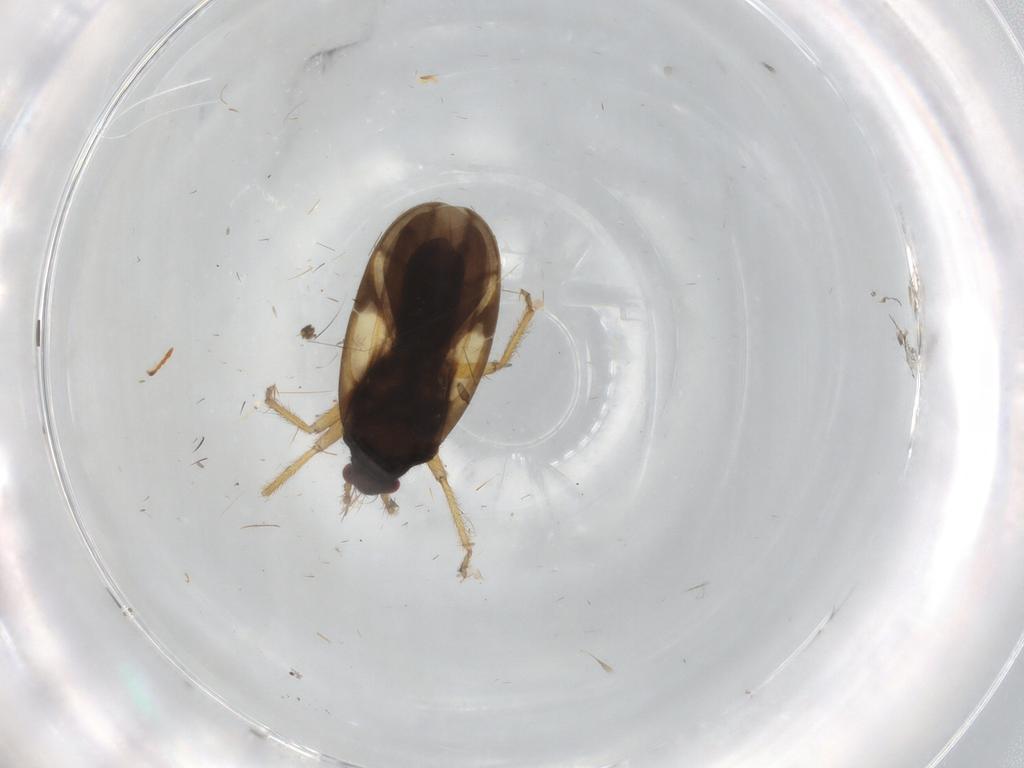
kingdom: Animalia
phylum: Arthropoda
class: Insecta
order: Hemiptera
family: Ceratocombidae
